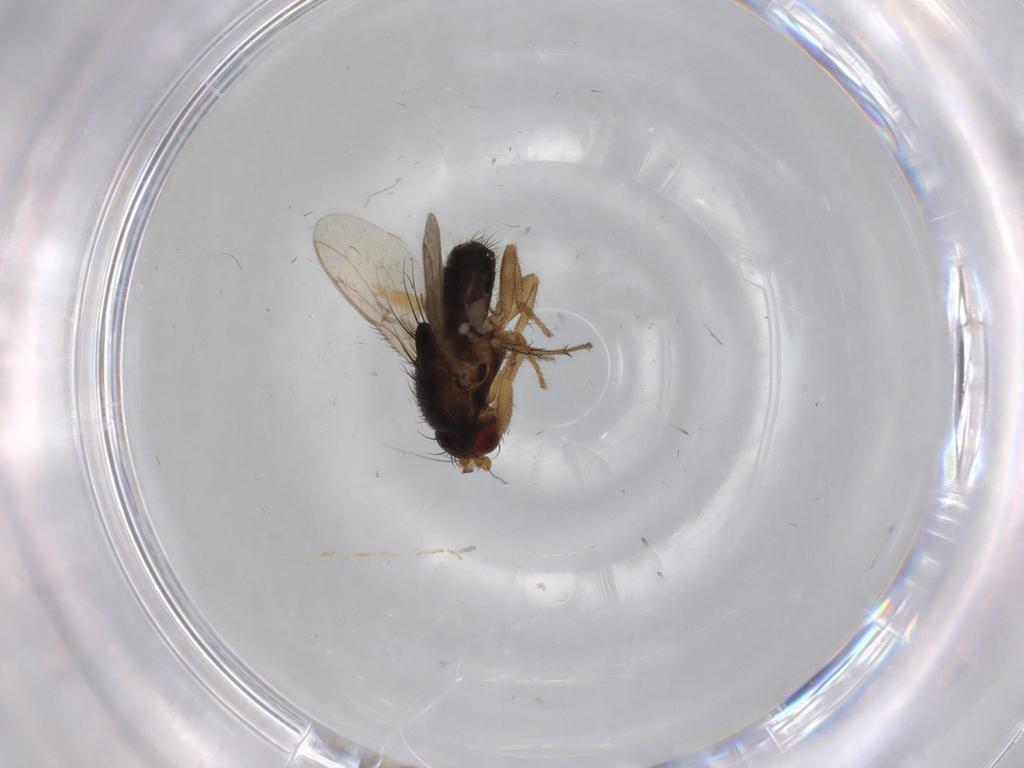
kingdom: Animalia
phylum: Arthropoda
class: Insecta
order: Diptera
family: Sphaeroceridae
